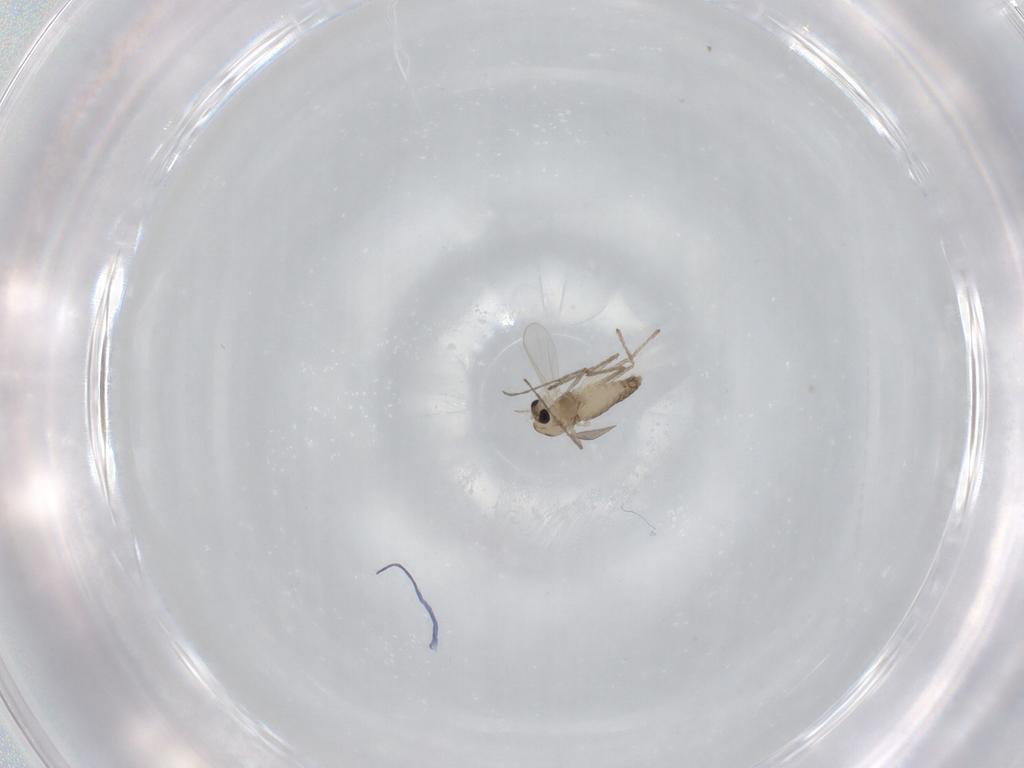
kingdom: Animalia
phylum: Arthropoda
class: Insecta
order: Diptera
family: Chironomidae
